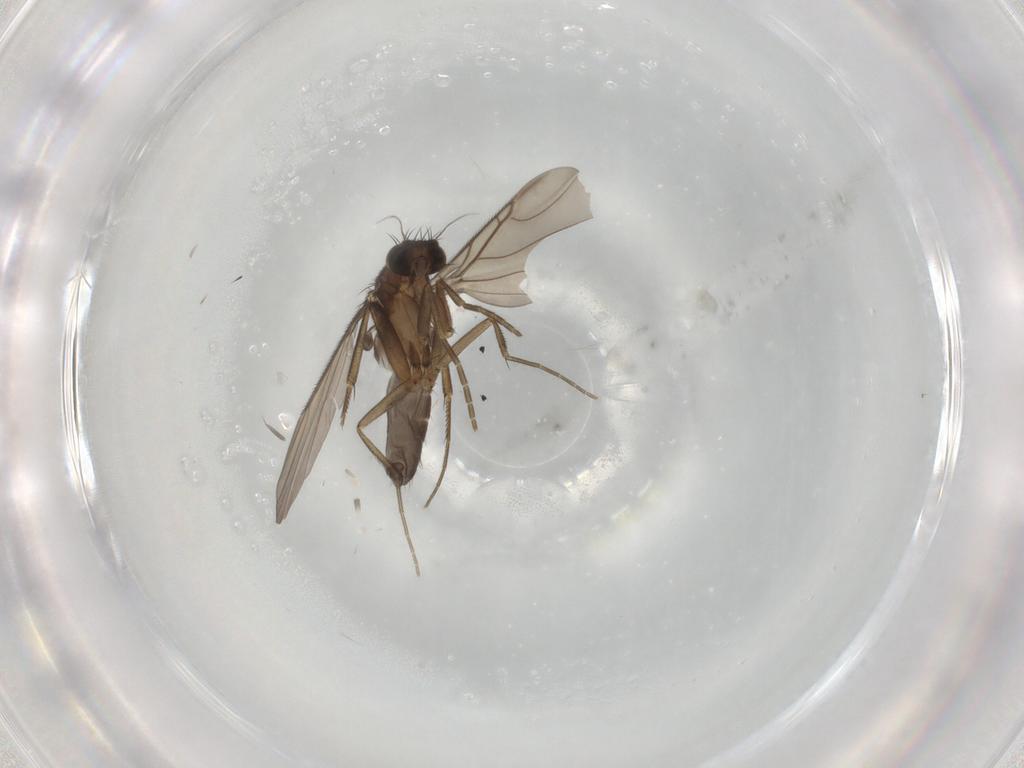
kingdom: Animalia
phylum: Arthropoda
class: Insecta
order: Diptera
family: Phoridae
